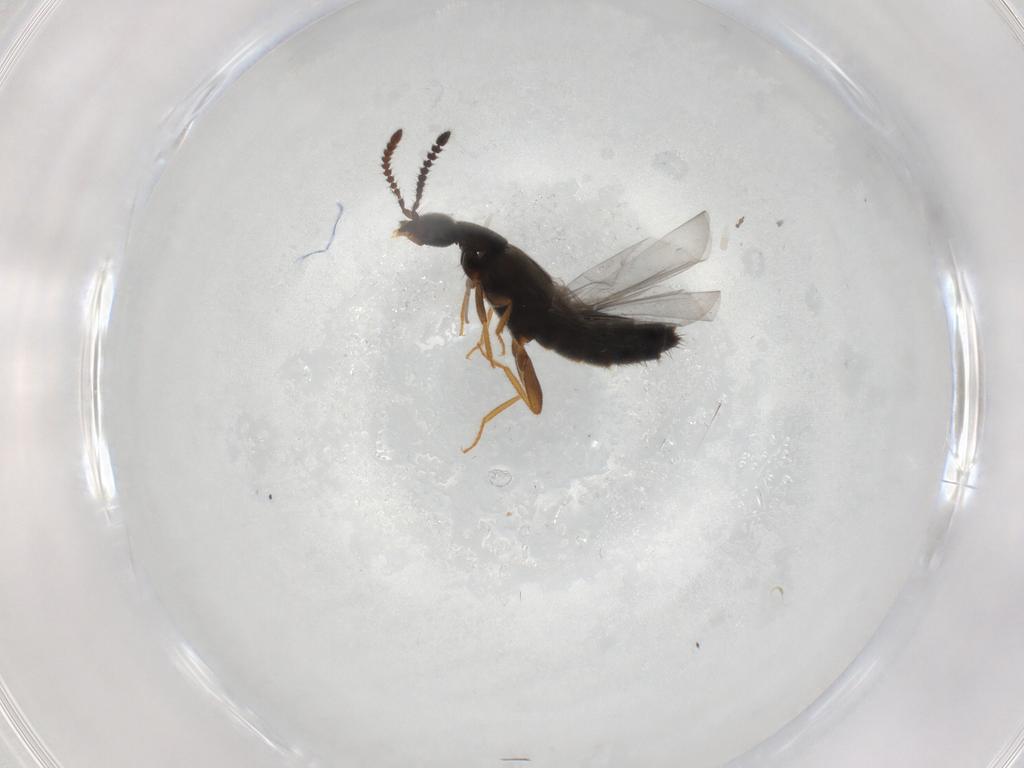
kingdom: Animalia
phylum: Arthropoda
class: Insecta
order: Coleoptera
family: Staphylinidae
